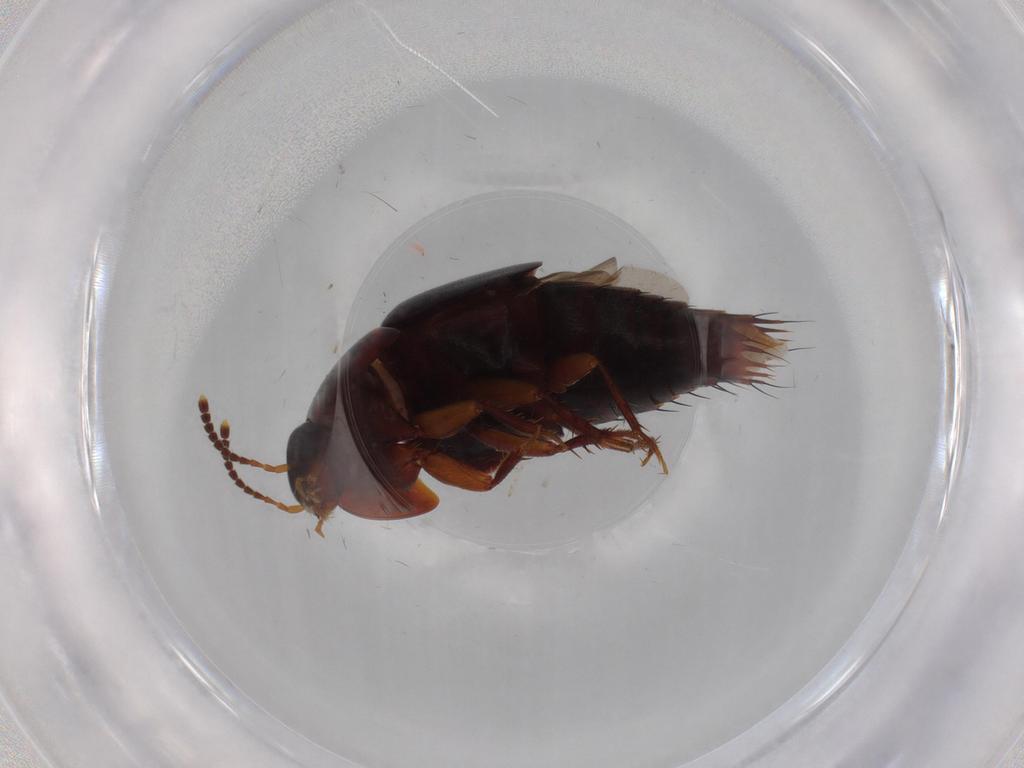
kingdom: Animalia
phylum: Arthropoda
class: Insecta
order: Coleoptera
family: Staphylinidae
